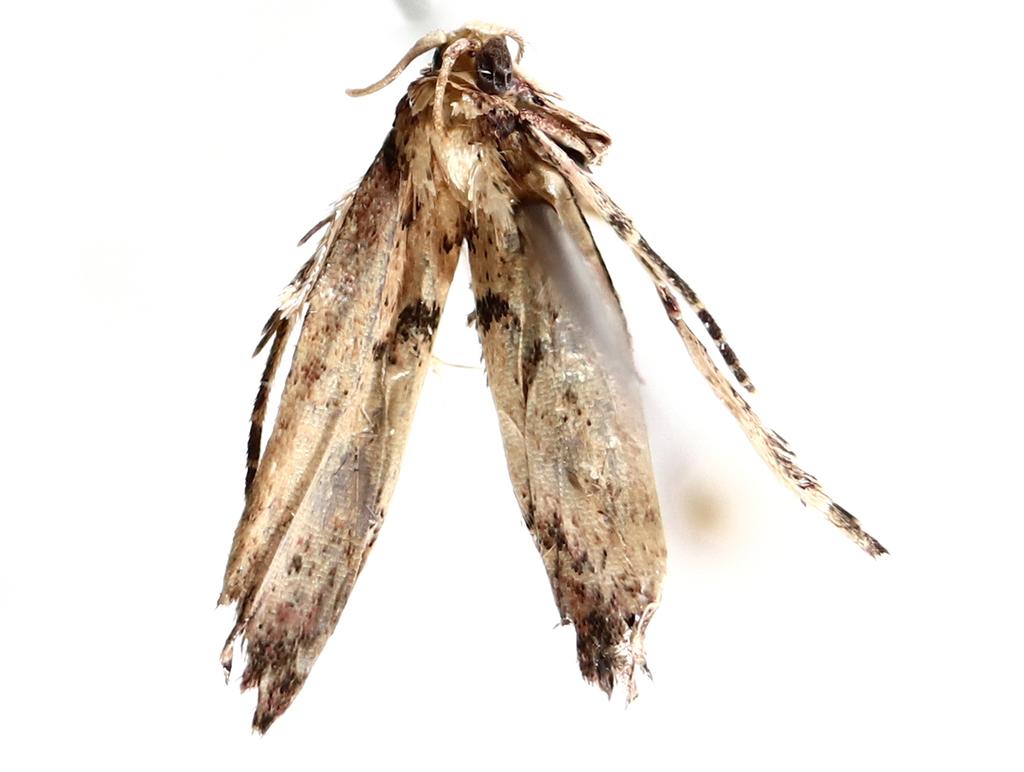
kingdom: Animalia
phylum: Arthropoda
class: Insecta
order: Diptera
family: Sciaridae
